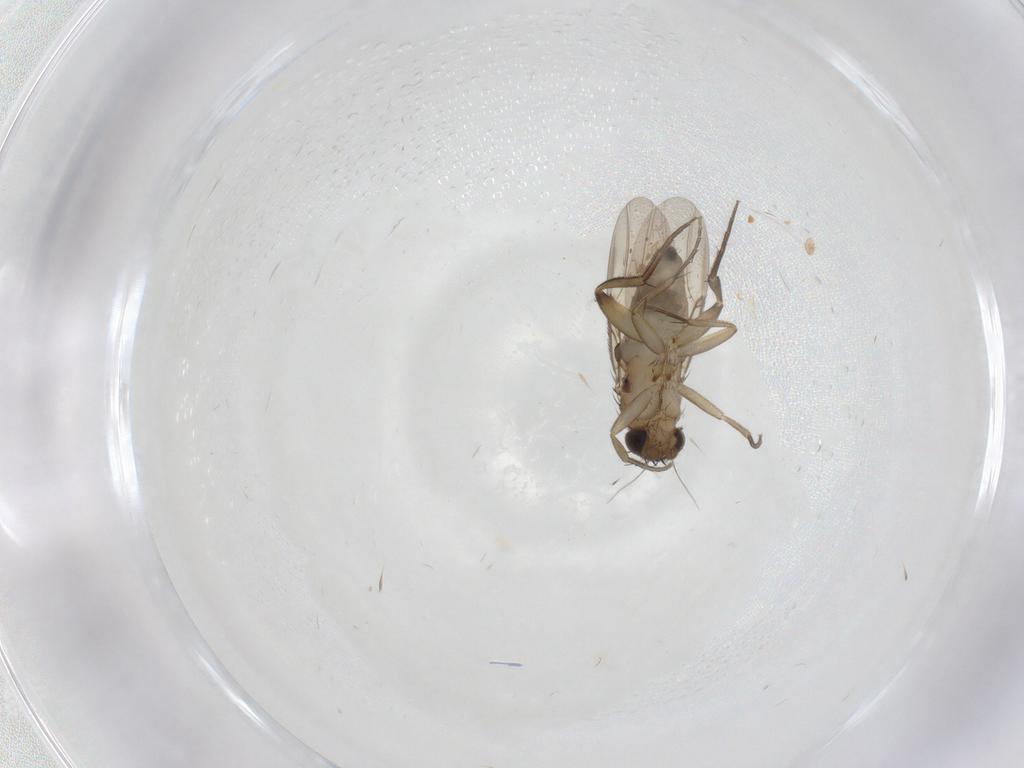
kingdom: Animalia
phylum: Arthropoda
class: Insecta
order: Diptera
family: Phoridae
